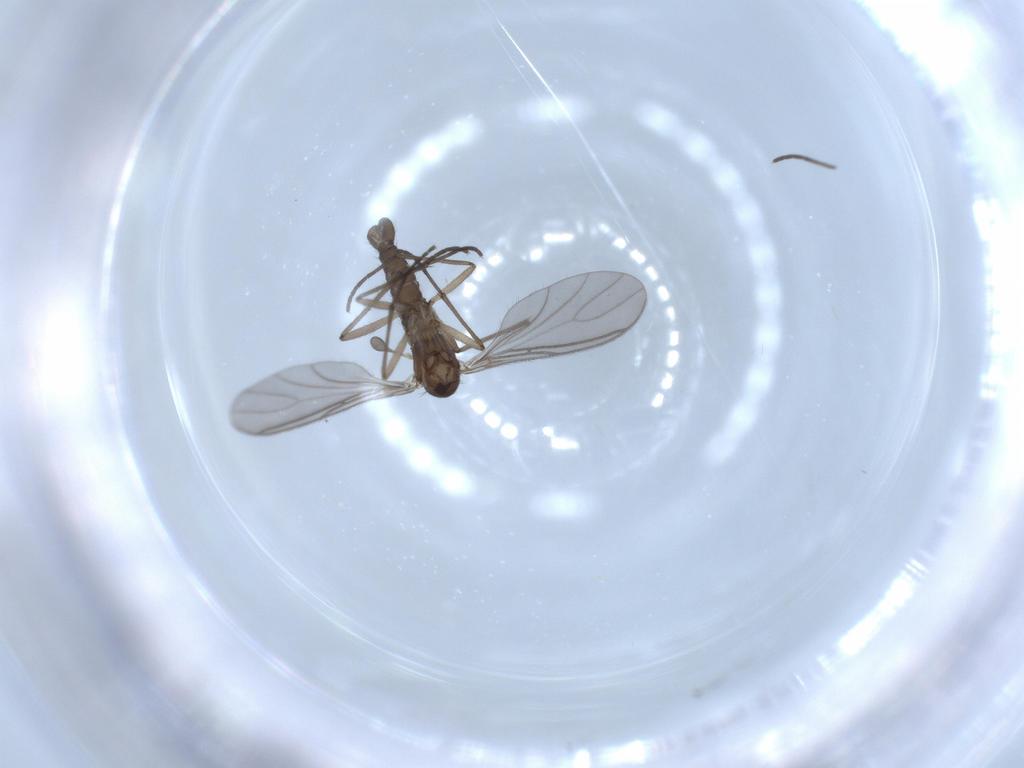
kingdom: Animalia
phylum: Arthropoda
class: Insecta
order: Diptera
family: Sciaridae
